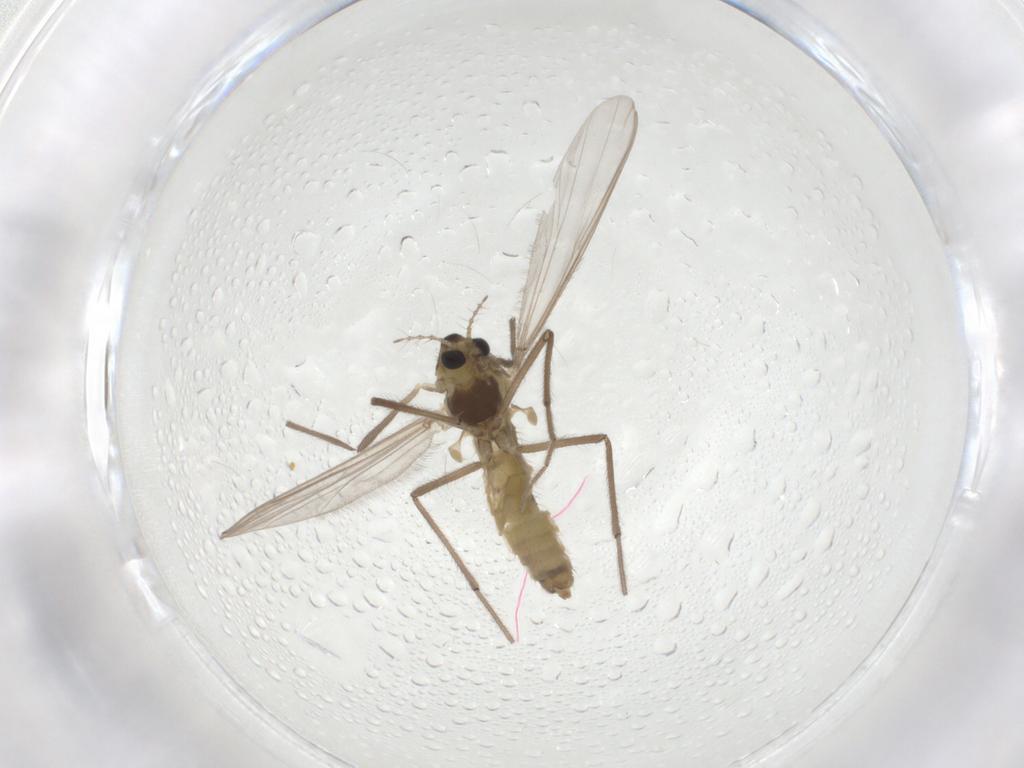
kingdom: Animalia
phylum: Arthropoda
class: Insecta
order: Diptera
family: Chironomidae
